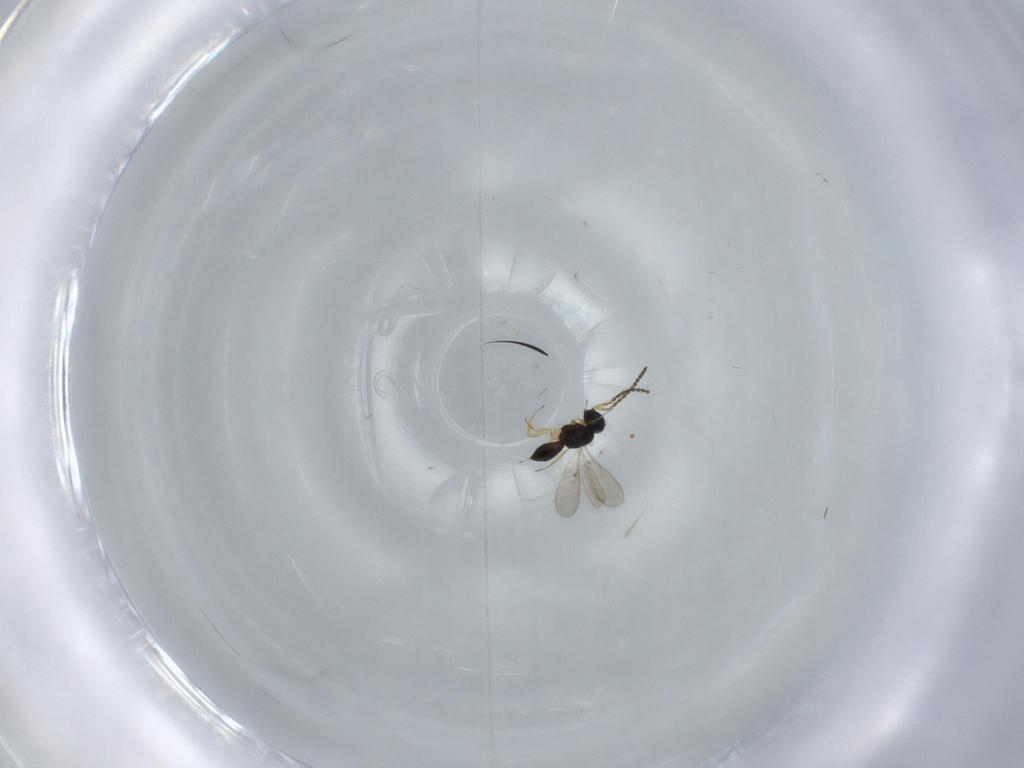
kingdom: Animalia
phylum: Arthropoda
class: Insecta
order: Hymenoptera
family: Scelionidae
